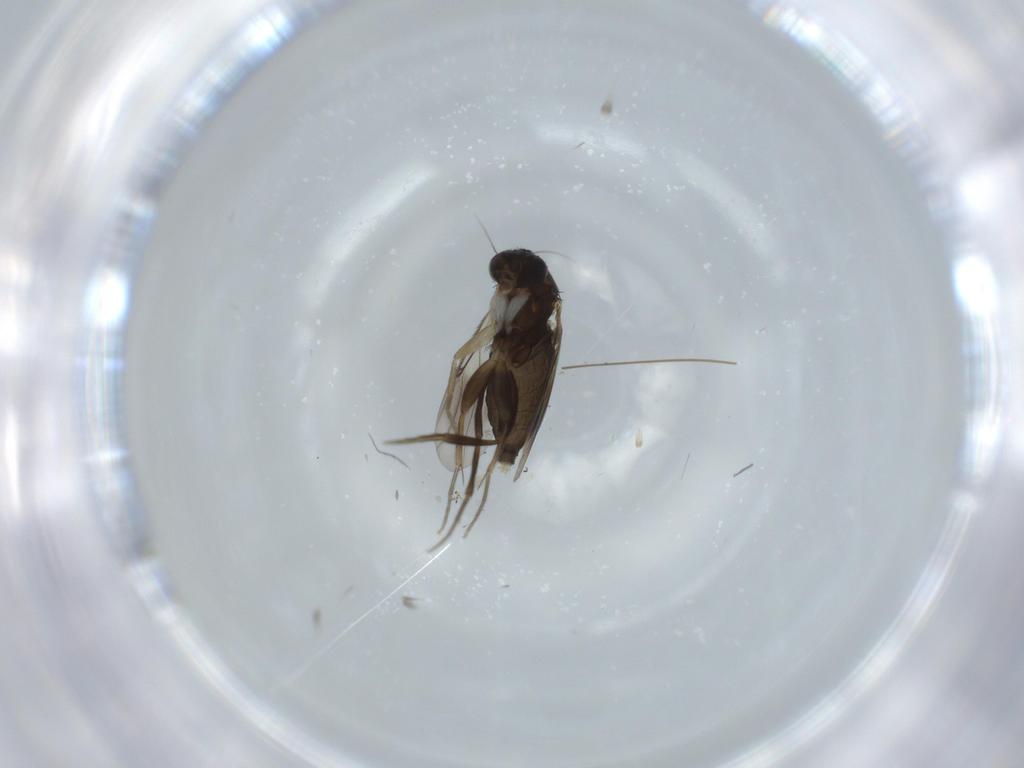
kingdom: Animalia
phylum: Arthropoda
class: Insecta
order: Diptera
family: Phoridae
